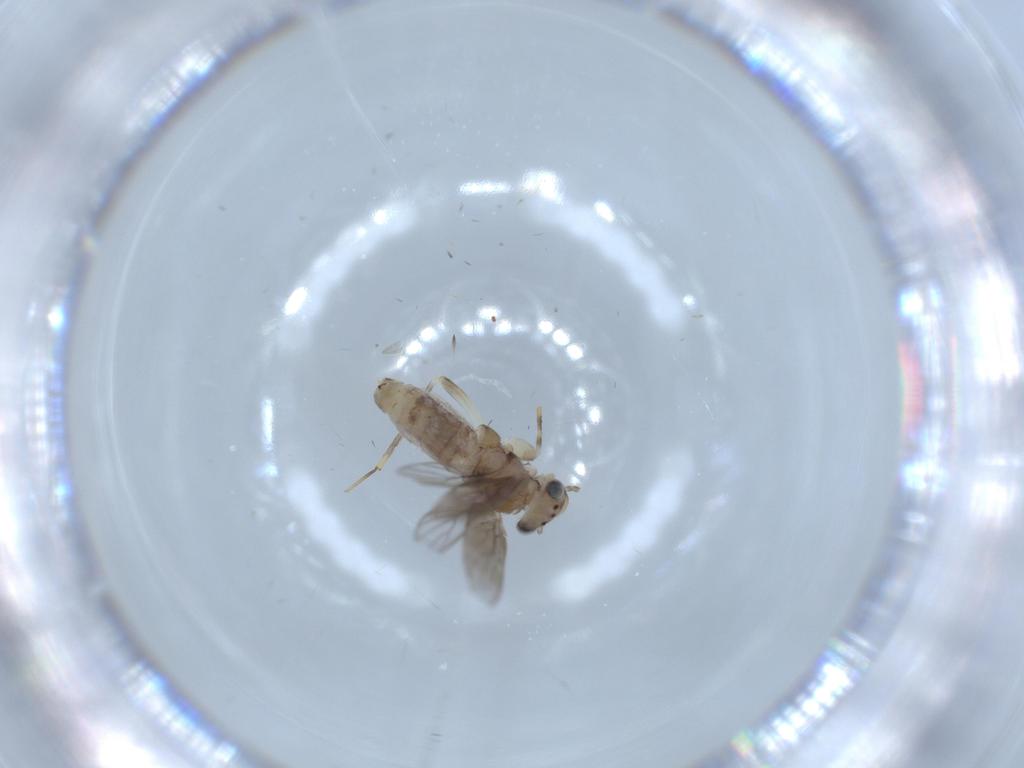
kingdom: Animalia
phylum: Arthropoda
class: Insecta
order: Psocodea
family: Lepidopsocidae
